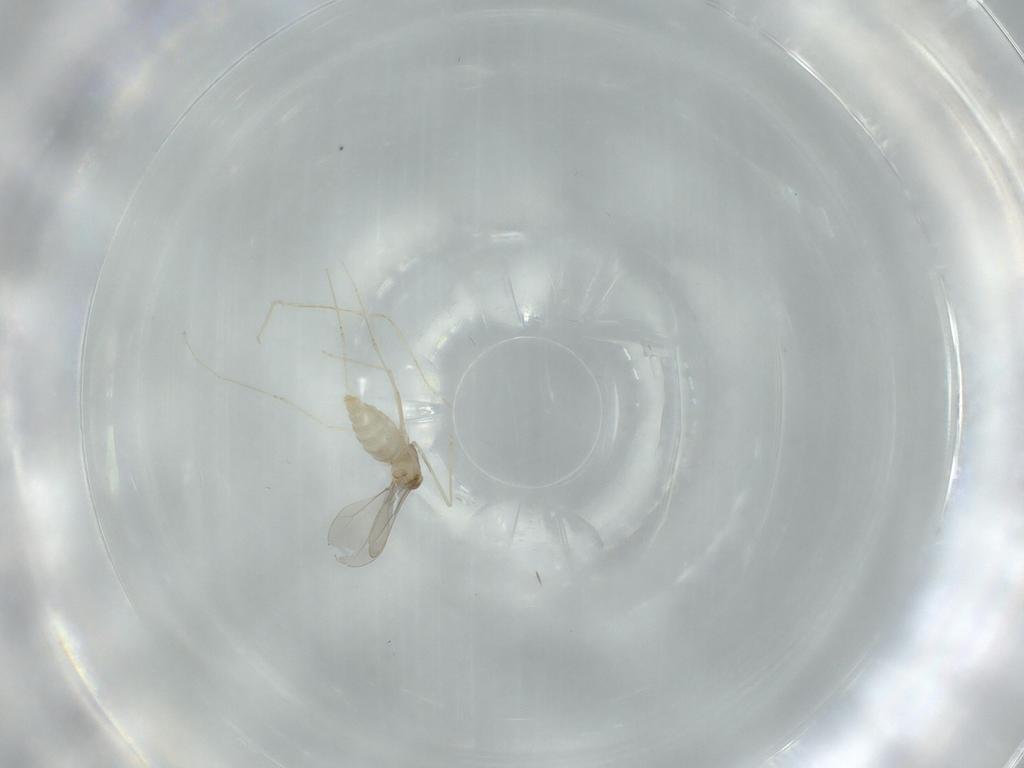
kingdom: Animalia
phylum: Arthropoda
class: Insecta
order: Diptera
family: Cecidomyiidae
